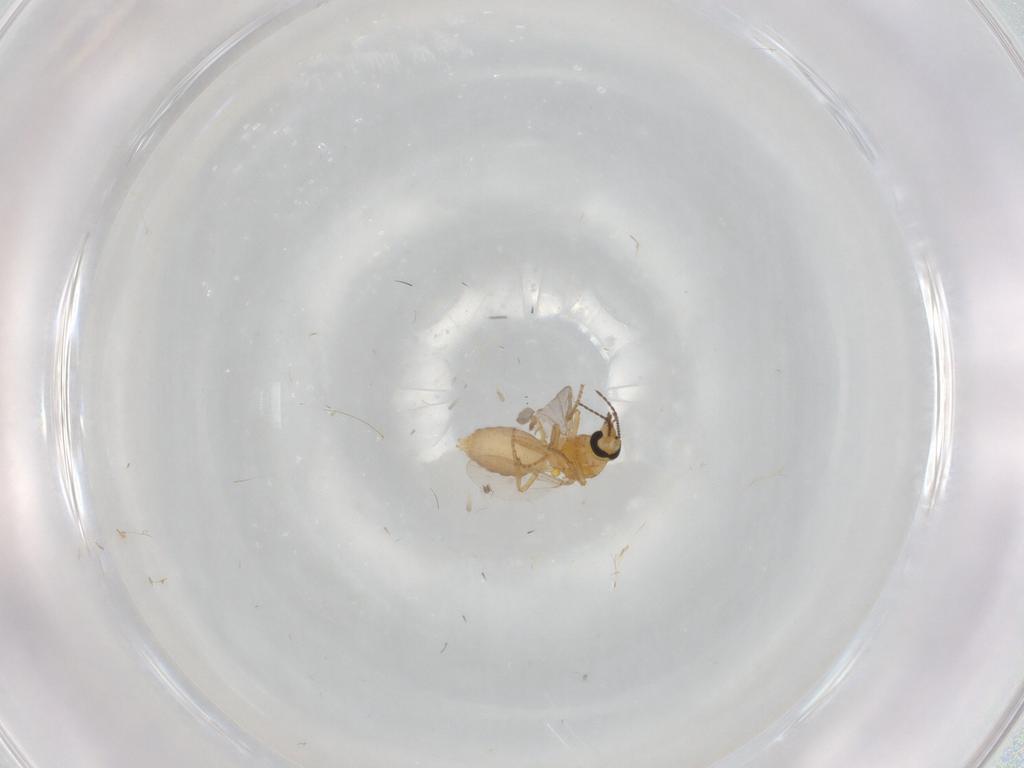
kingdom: Animalia
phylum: Arthropoda
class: Insecta
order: Diptera
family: Ceratopogonidae
